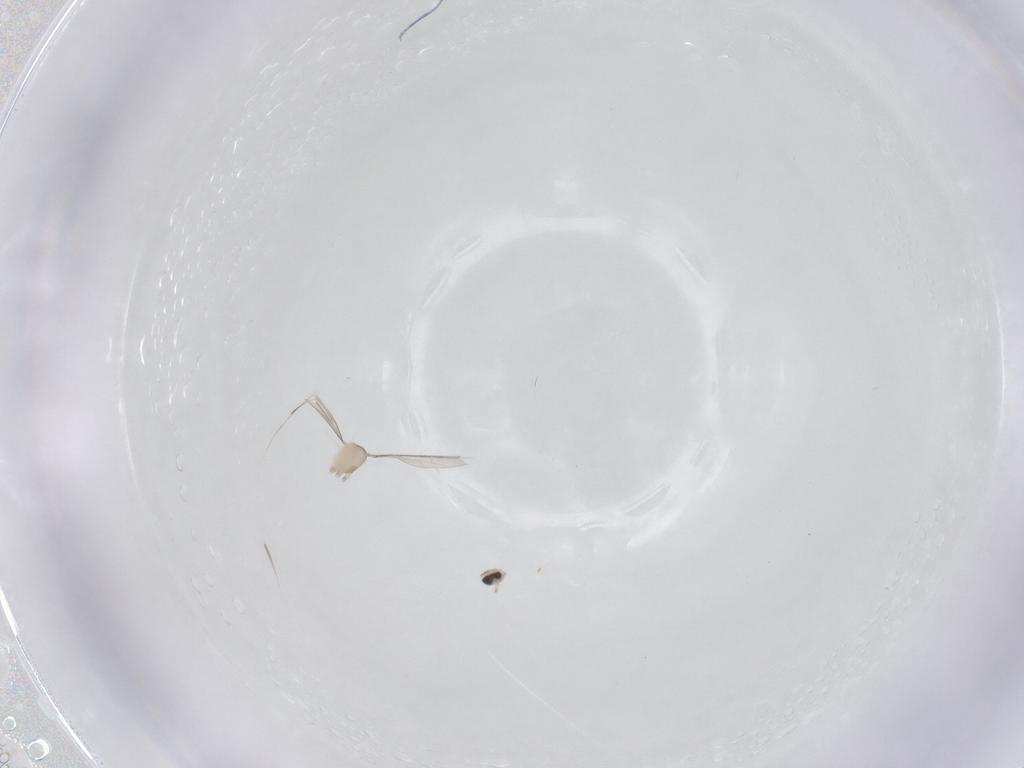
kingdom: Animalia
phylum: Arthropoda
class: Insecta
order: Diptera
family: Cecidomyiidae
